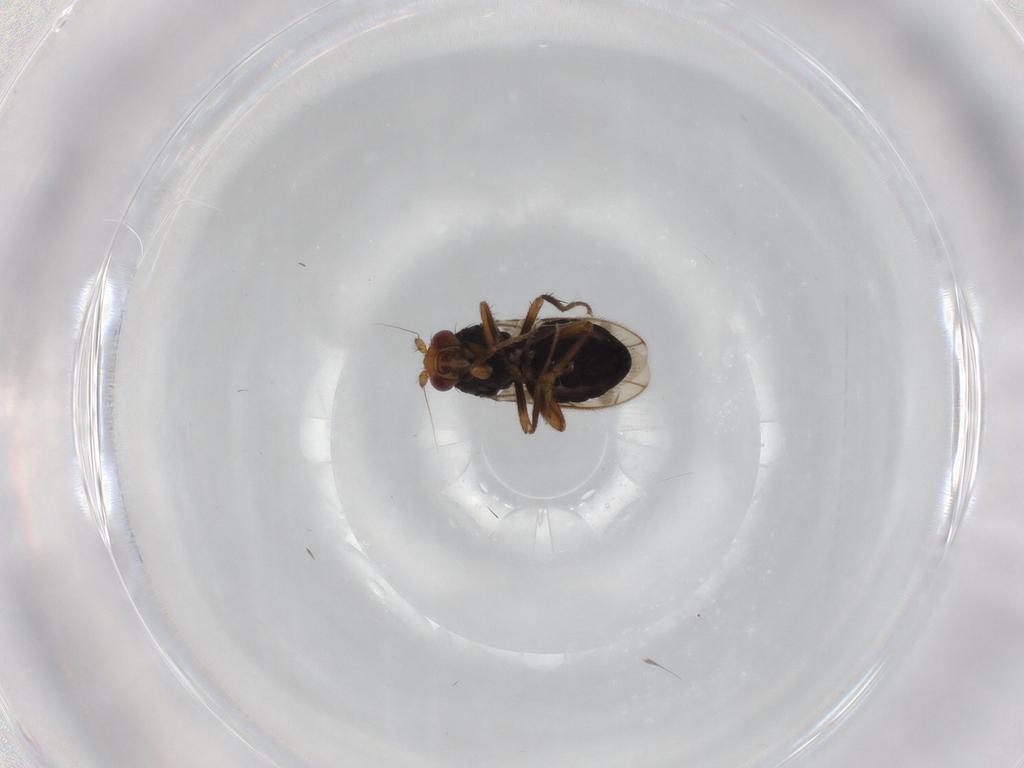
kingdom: Animalia
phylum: Arthropoda
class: Insecta
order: Diptera
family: Sphaeroceridae
